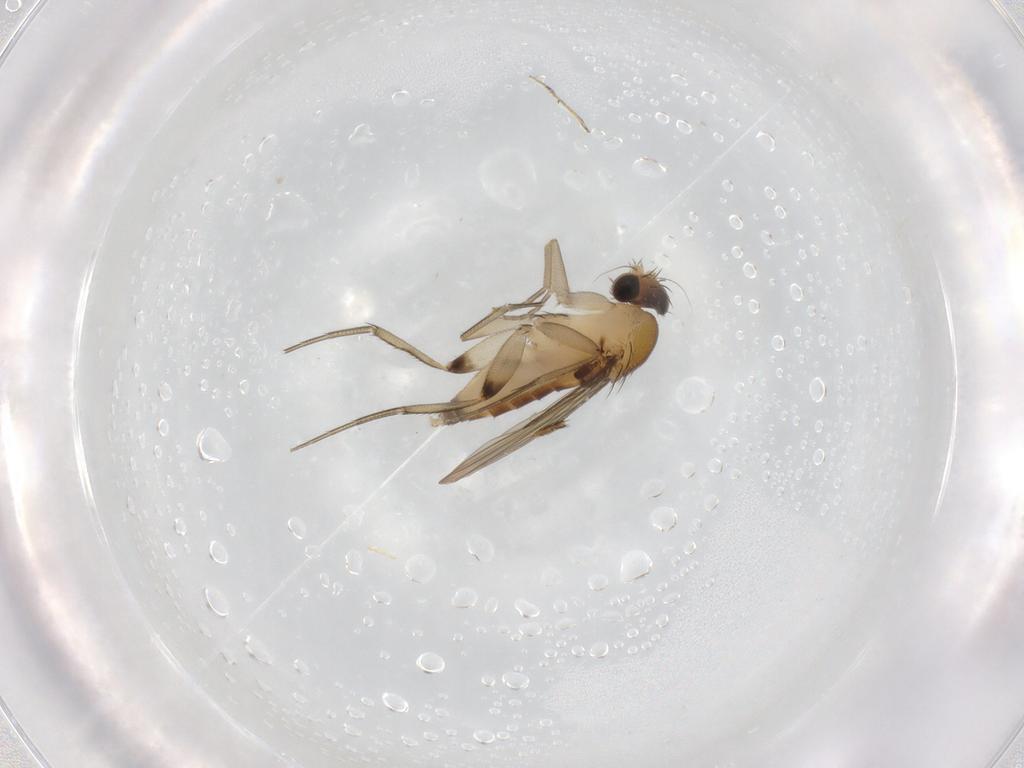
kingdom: Animalia
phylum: Arthropoda
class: Insecta
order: Diptera
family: Phoridae
